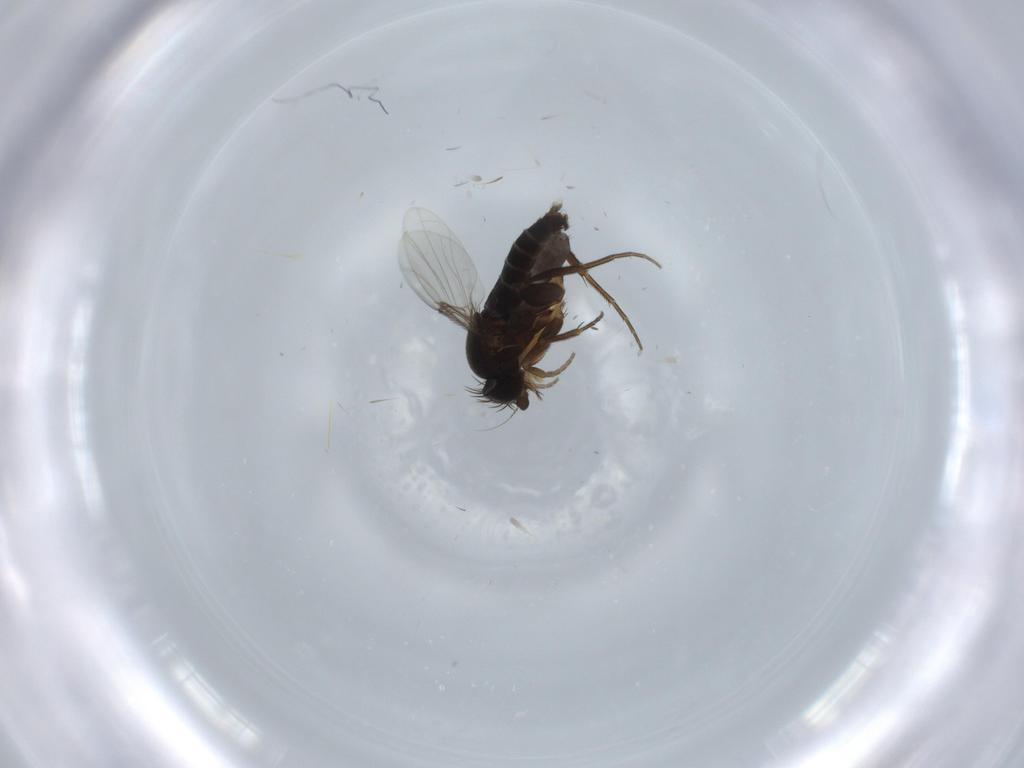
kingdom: Animalia
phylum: Arthropoda
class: Insecta
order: Diptera
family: Phoridae
